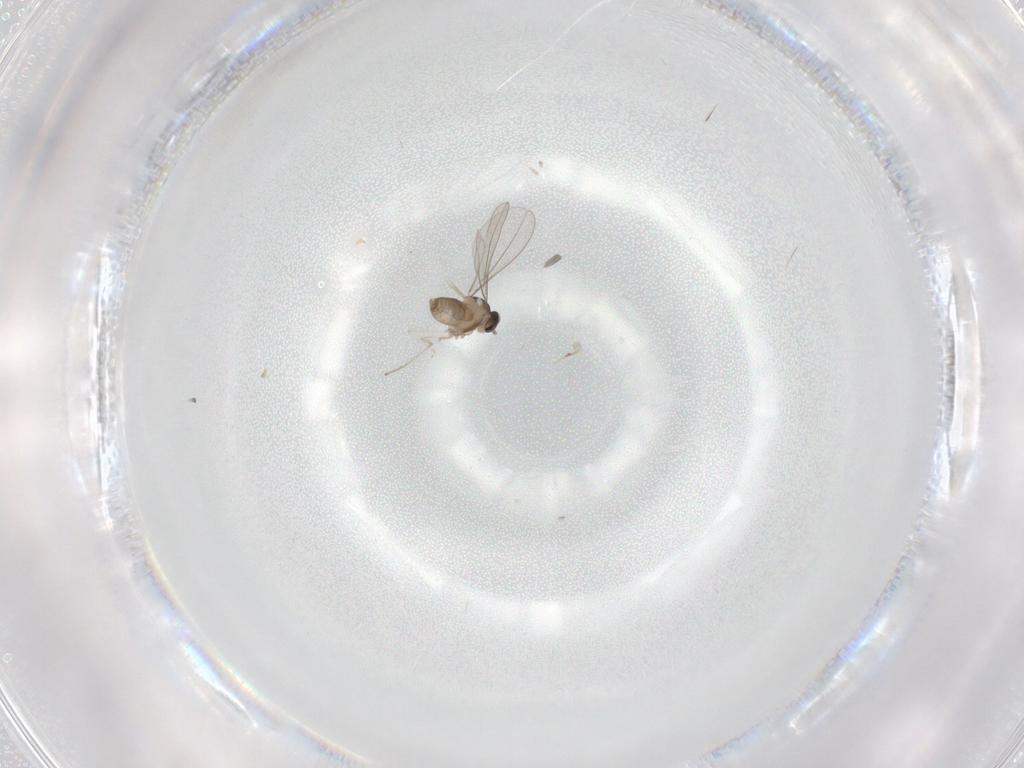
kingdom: Animalia
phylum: Arthropoda
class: Insecta
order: Diptera
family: Cecidomyiidae
